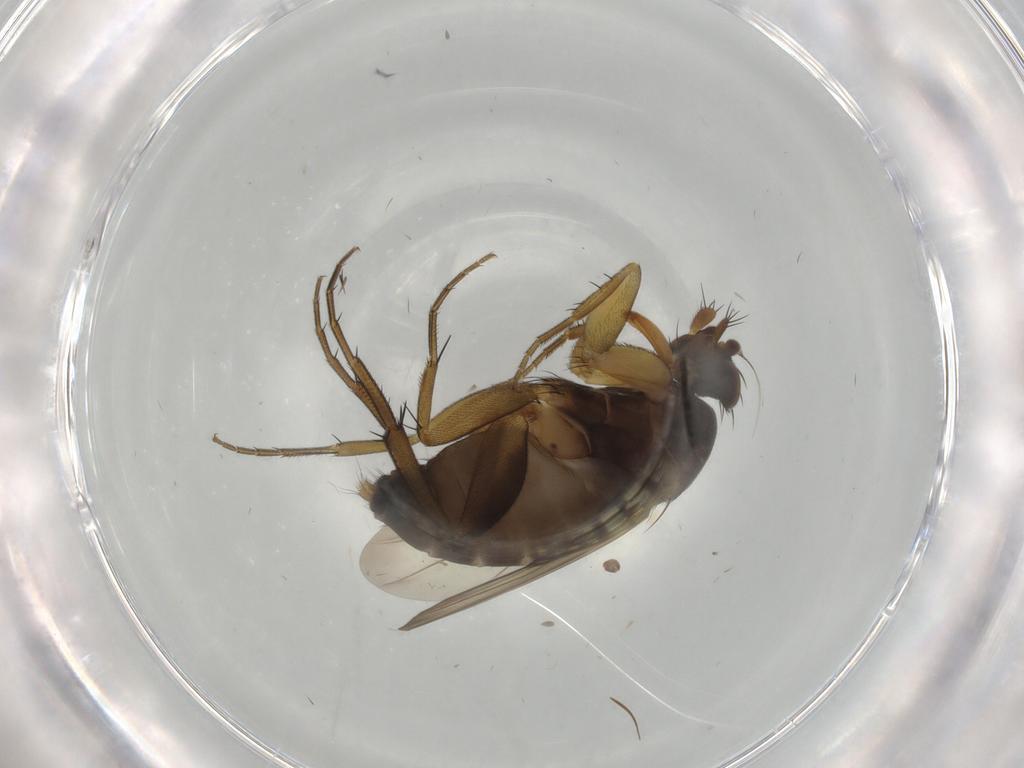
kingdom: Animalia
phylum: Arthropoda
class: Insecta
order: Diptera
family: Phoridae
